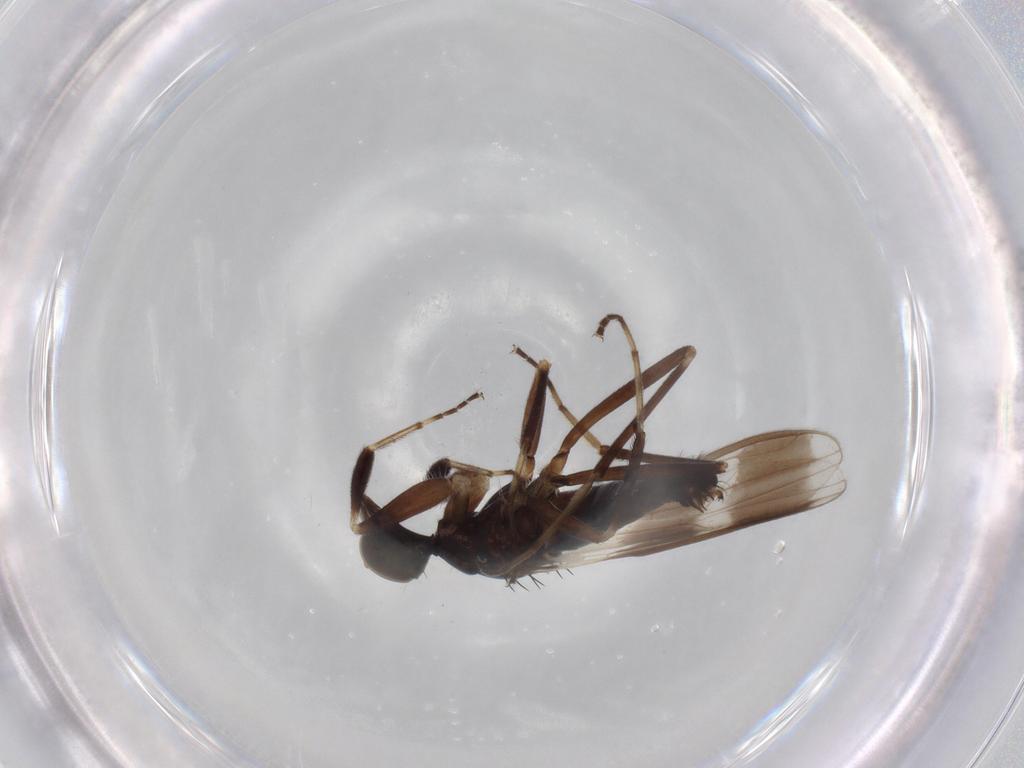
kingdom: Animalia
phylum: Arthropoda
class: Insecta
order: Diptera
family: Hybotidae
